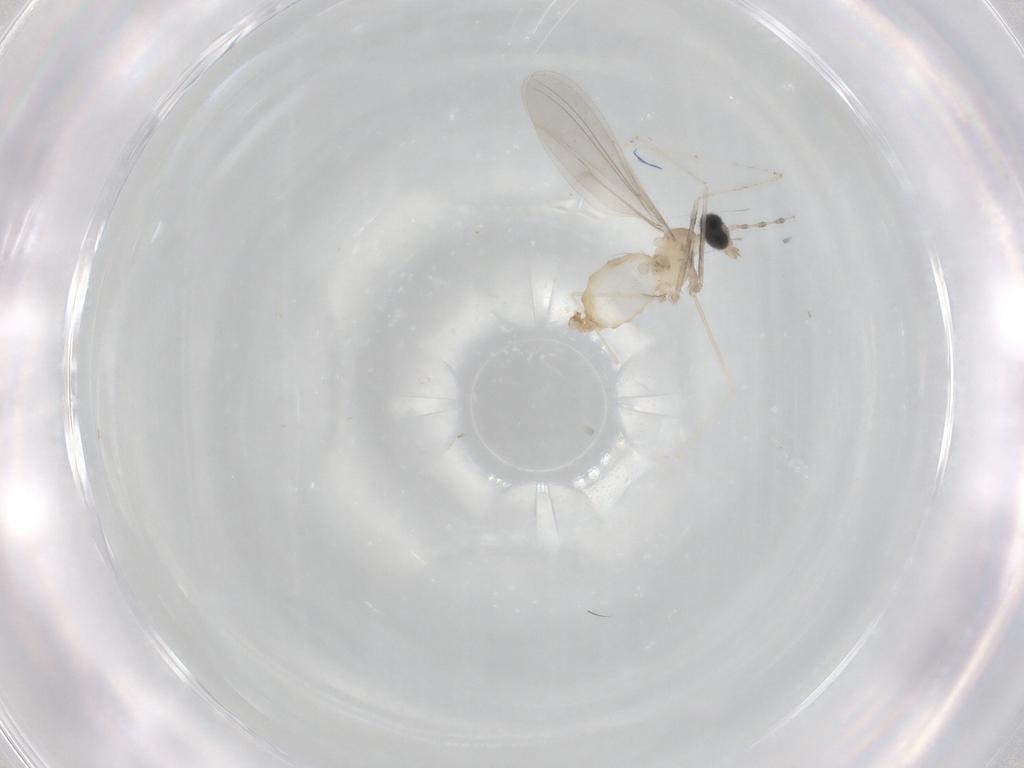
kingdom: Animalia
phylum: Arthropoda
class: Insecta
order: Diptera
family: Cecidomyiidae
